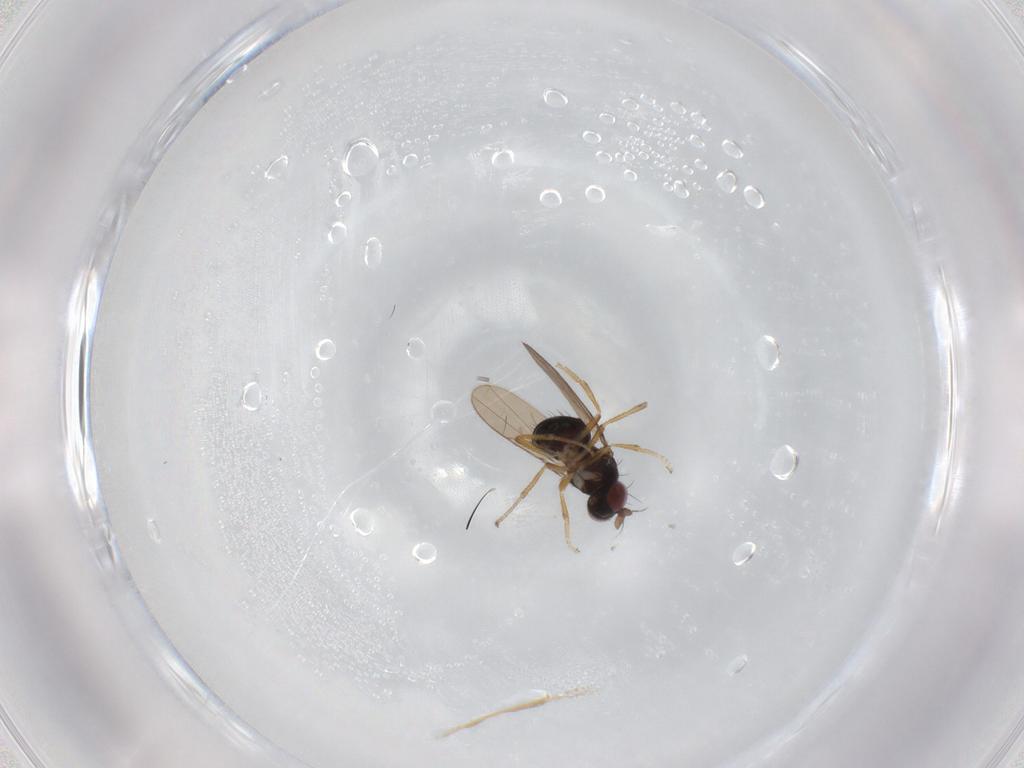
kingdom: Animalia
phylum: Arthropoda
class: Insecta
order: Diptera
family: Ephydridae
